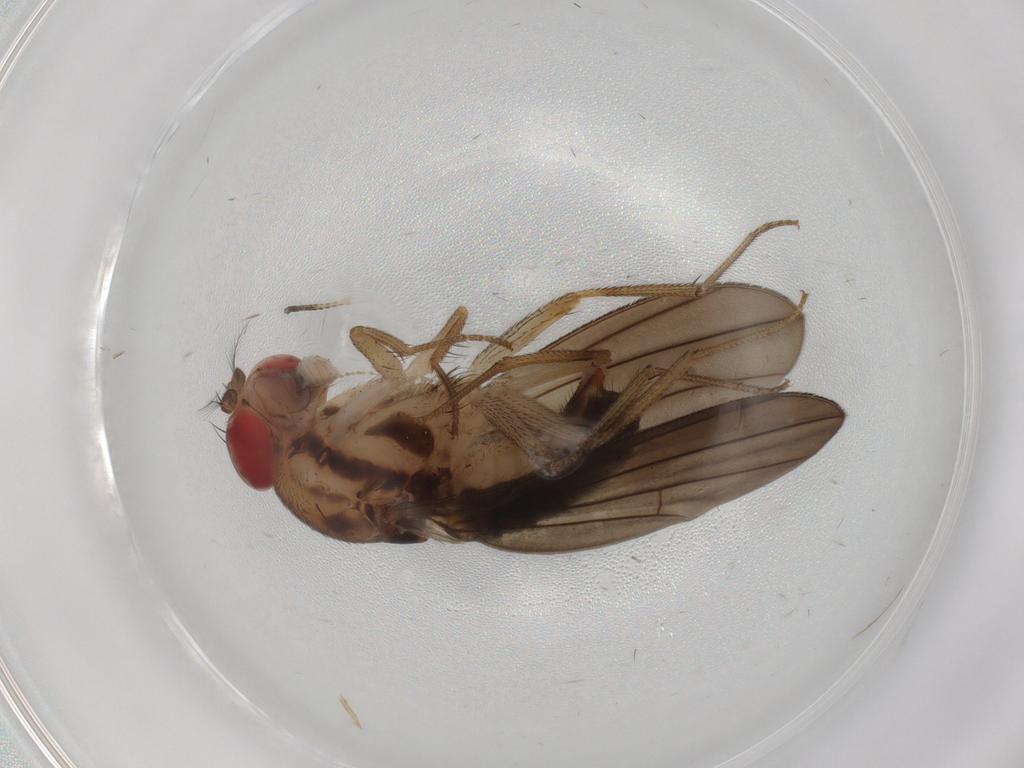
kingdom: Animalia
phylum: Arthropoda
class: Insecta
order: Diptera
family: Drosophilidae
